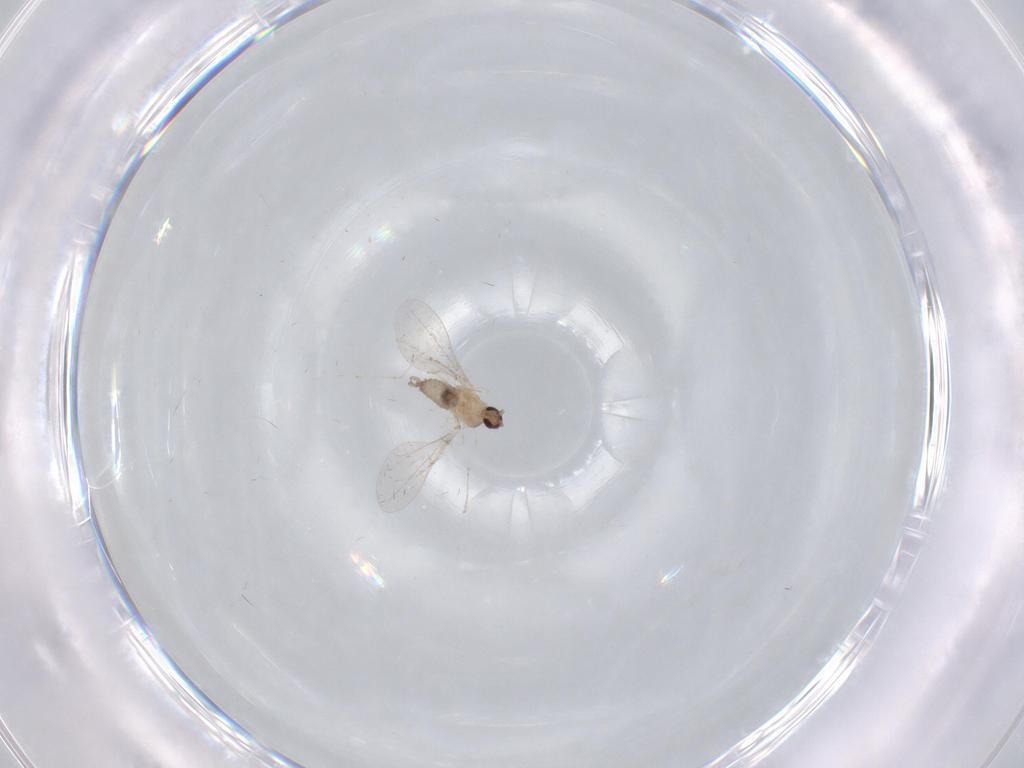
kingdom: Animalia
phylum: Arthropoda
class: Insecta
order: Diptera
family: Cecidomyiidae
